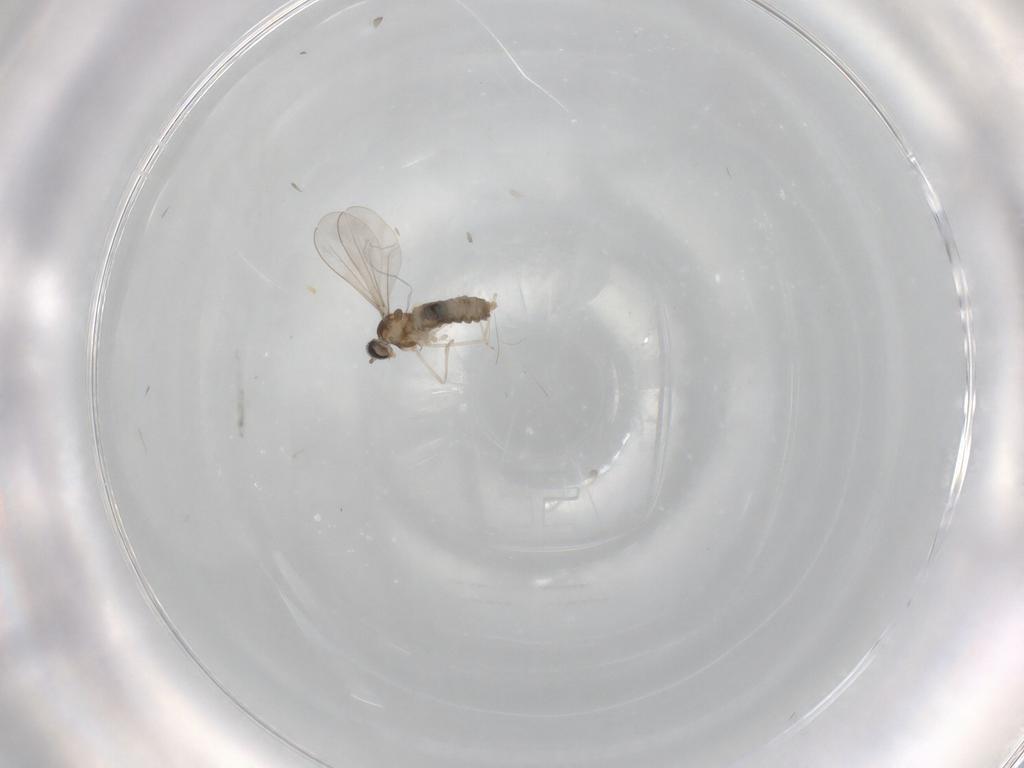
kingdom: Animalia
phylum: Arthropoda
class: Insecta
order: Diptera
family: Cecidomyiidae
